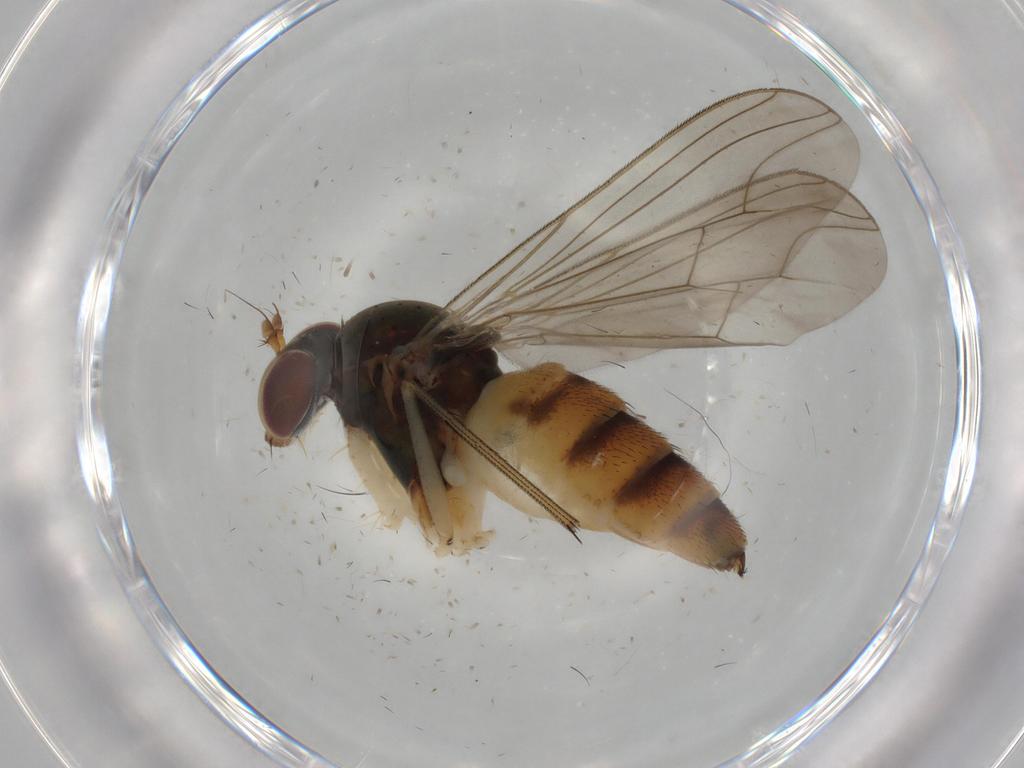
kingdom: Animalia
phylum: Arthropoda
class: Insecta
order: Diptera
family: Dolichopodidae
